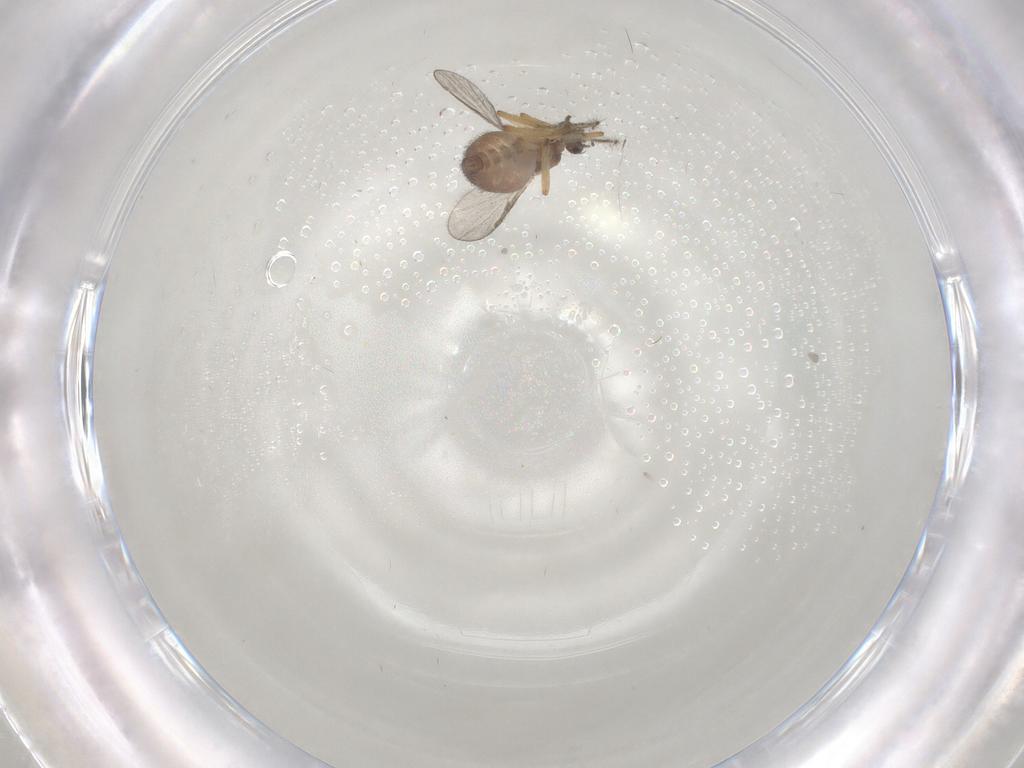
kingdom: Animalia
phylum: Arthropoda
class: Insecta
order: Diptera
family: Ceratopogonidae
